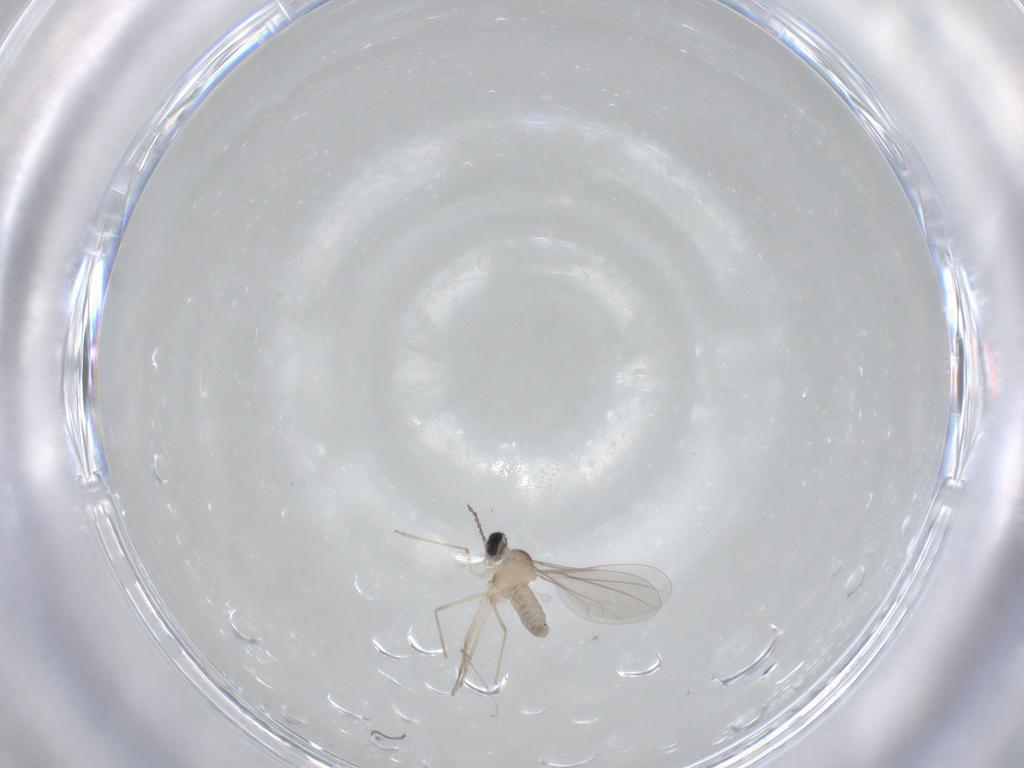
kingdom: Animalia
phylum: Arthropoda
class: Insecta
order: Diptera
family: Cecidomyiidae
